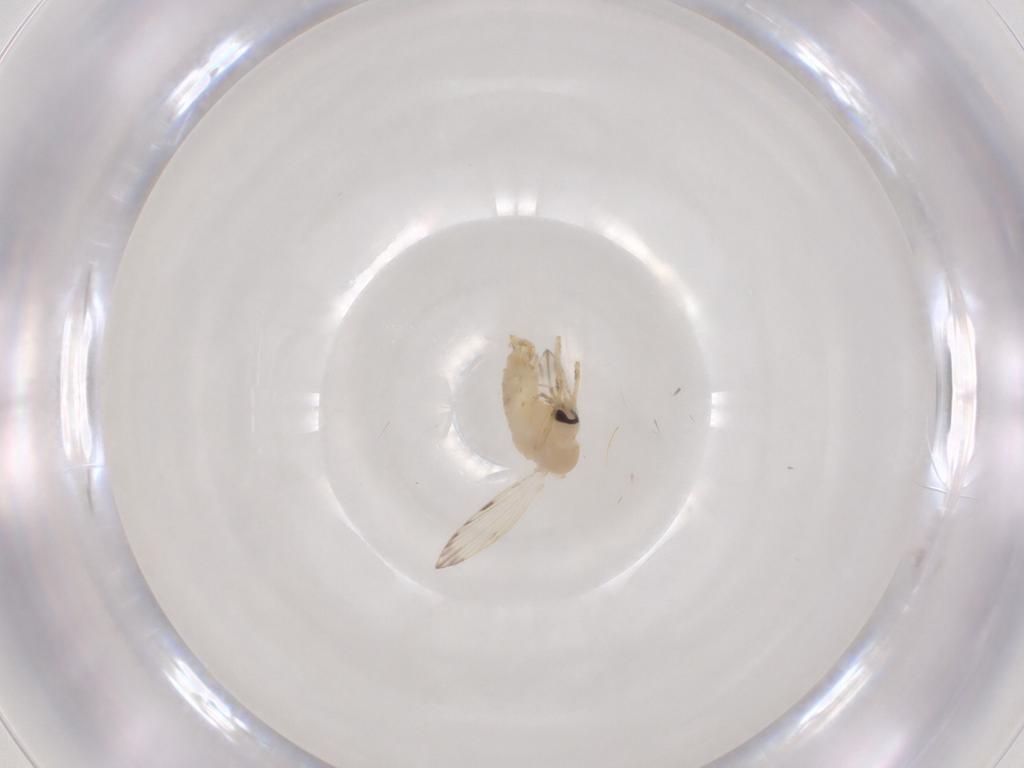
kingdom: Animalia
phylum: Arthropoda
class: Insecta
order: Diptera
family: Psychodidae
